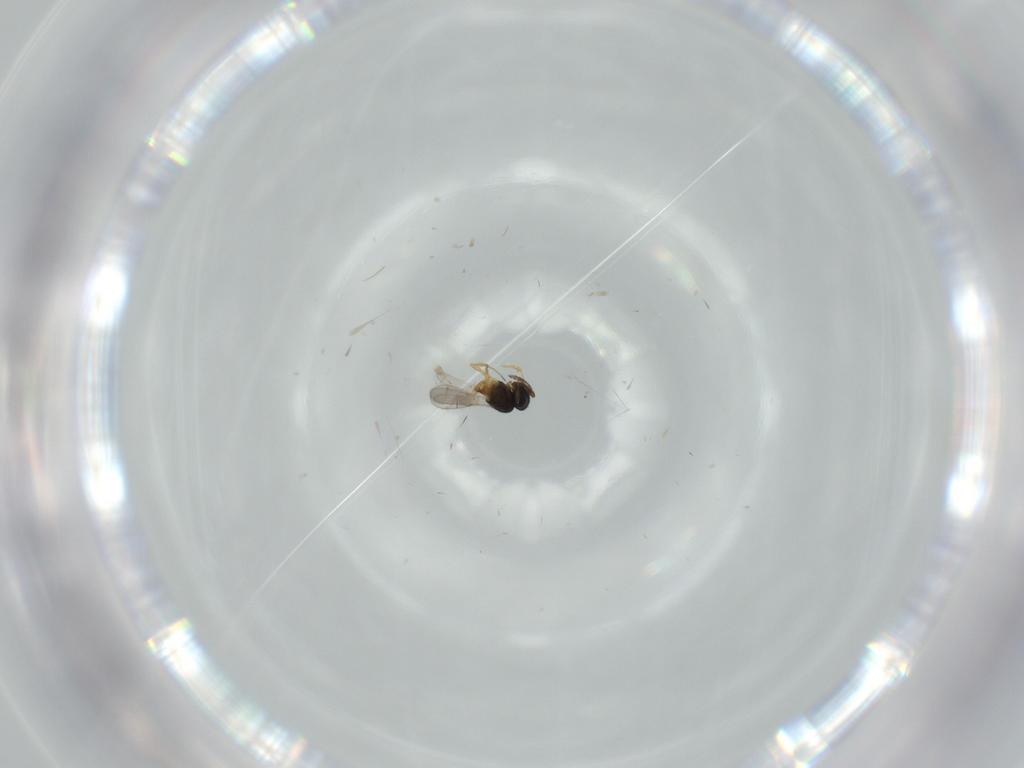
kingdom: Animalia
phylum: Arthropoda
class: Insecta
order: Hymenoptera
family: Scelionidae
